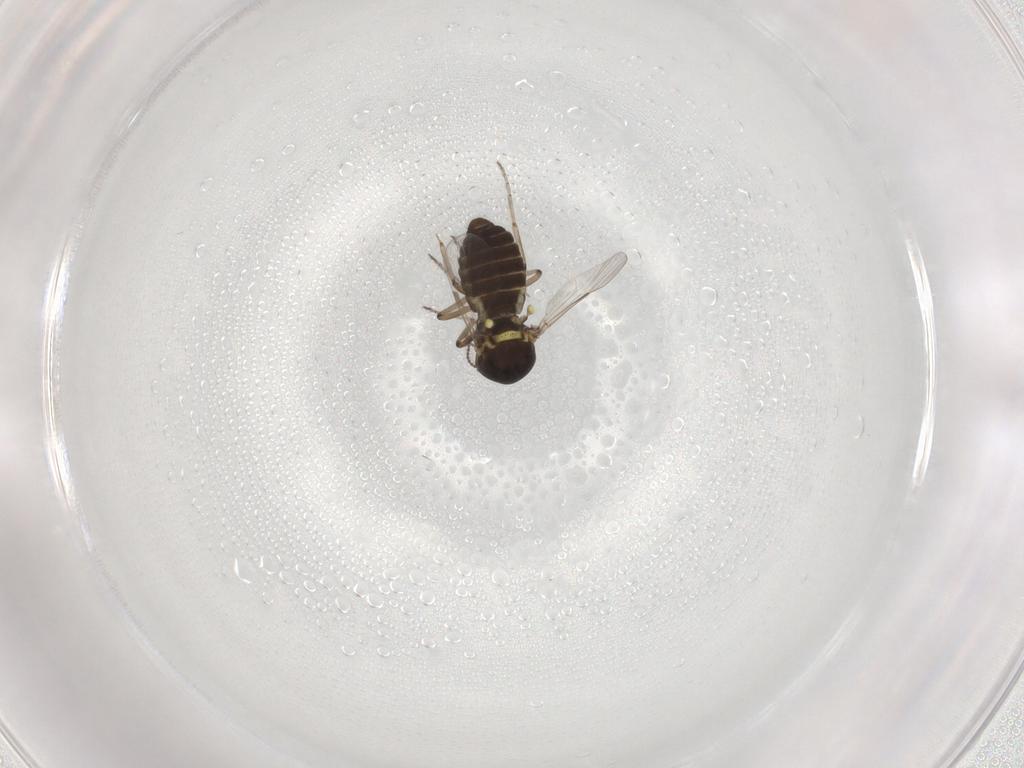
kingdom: Animalia
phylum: Arthropoda
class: Insecta
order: Diptera
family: Ceratopogonidae
